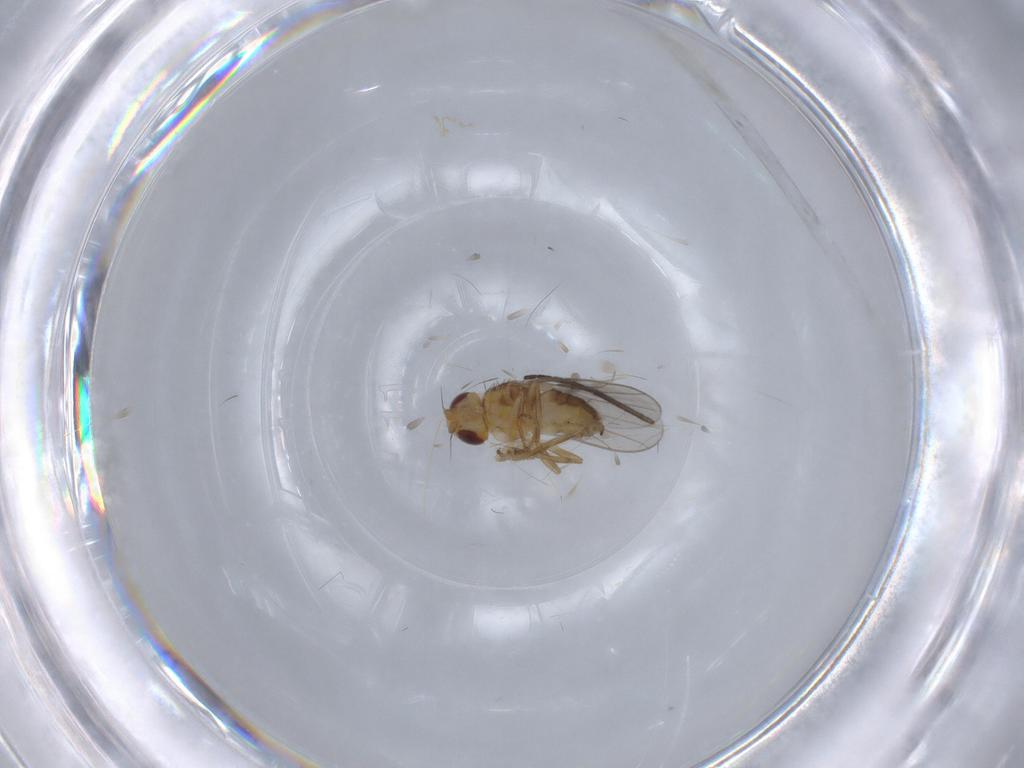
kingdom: Animalia
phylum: Arthropoda
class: Insecta
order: Diptera
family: Chloropidae
